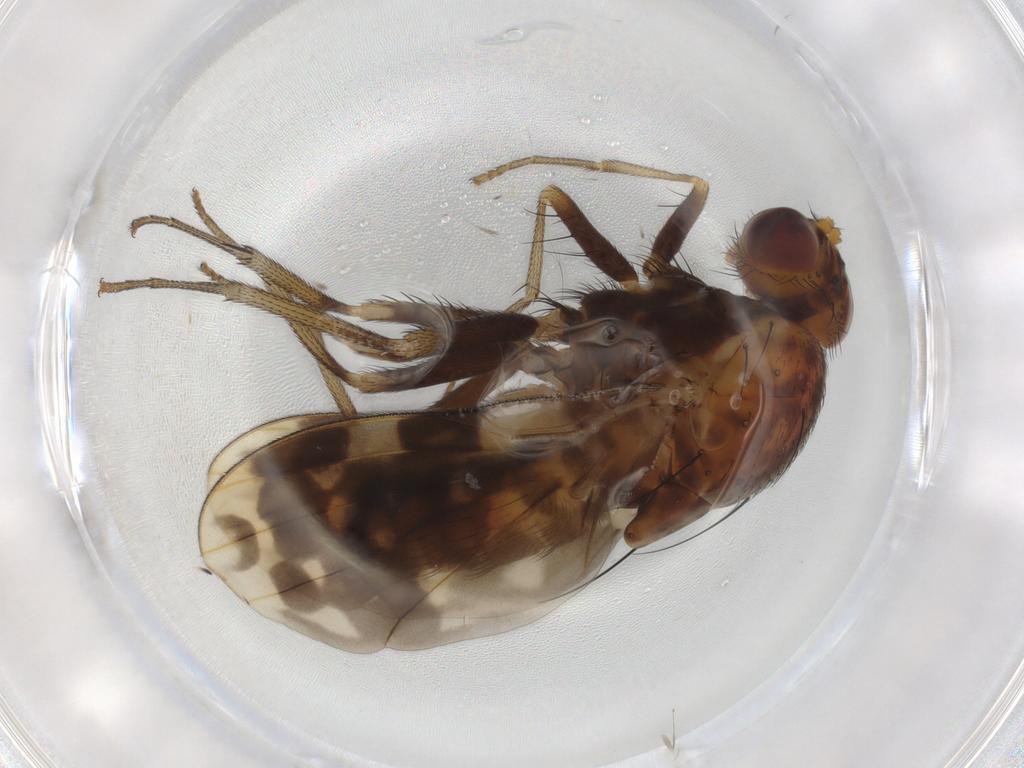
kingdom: Animalia
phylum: Arthropoda
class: Insecta
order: Diptera
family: Lauxaniidae
